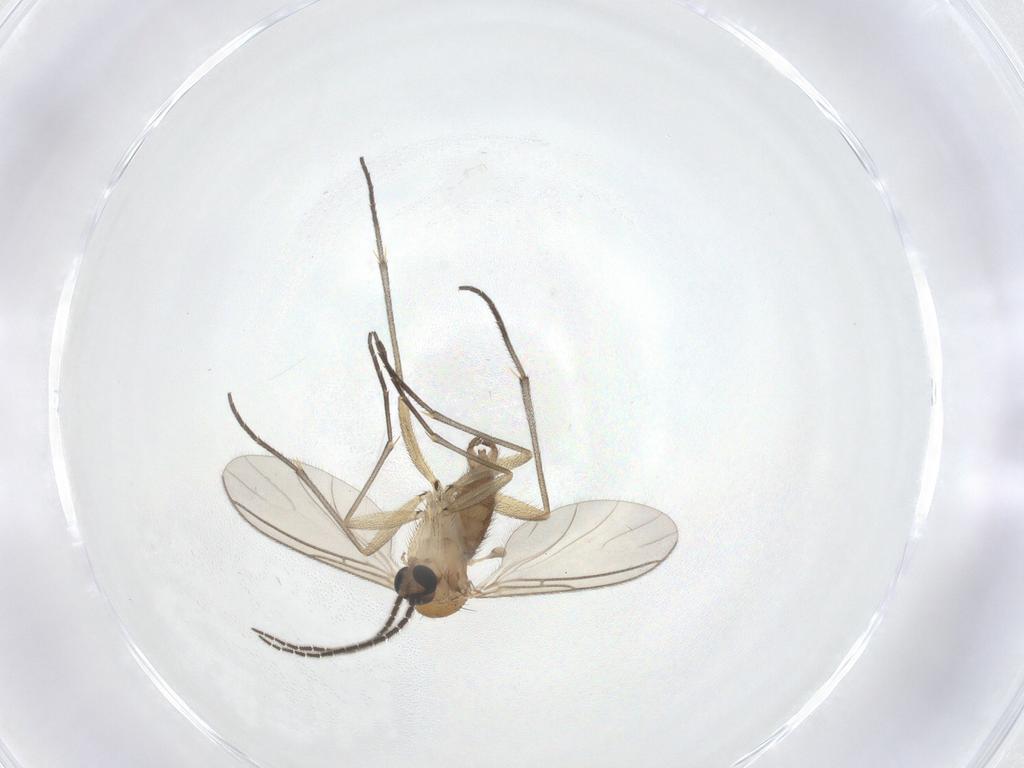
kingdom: Animalia
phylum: Arthropoda
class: Insecta
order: Diptera
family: Sciaridae
